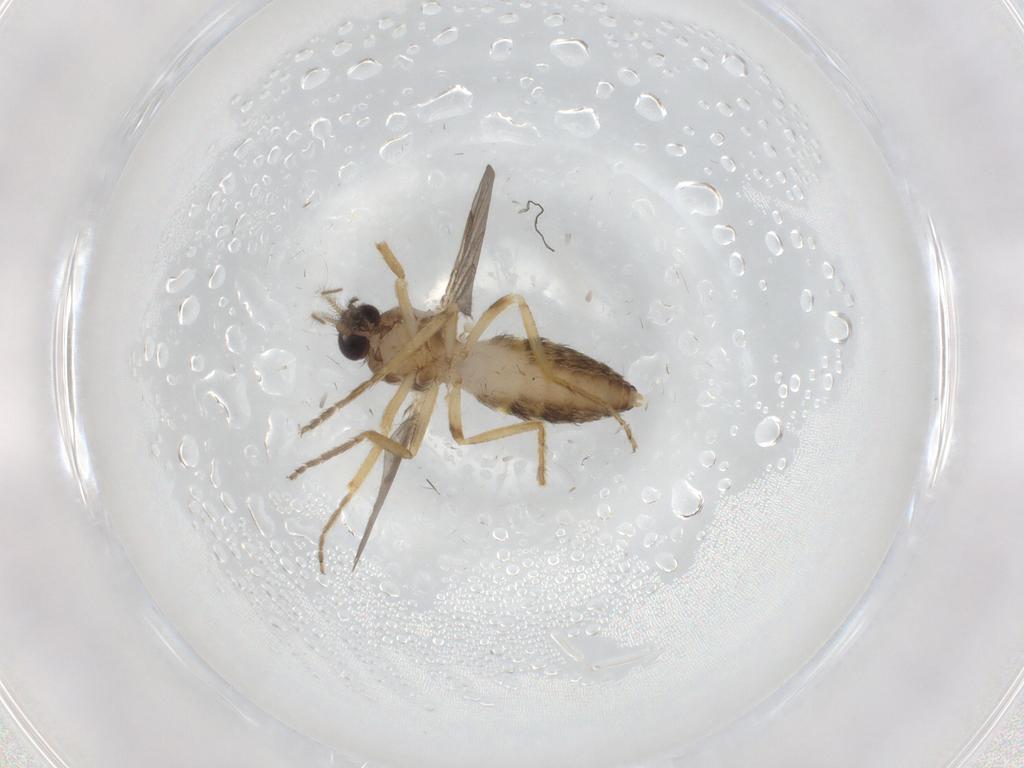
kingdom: Animalia
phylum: Arthropoda
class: Insecta
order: Diptera
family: Ceratopogonidae
